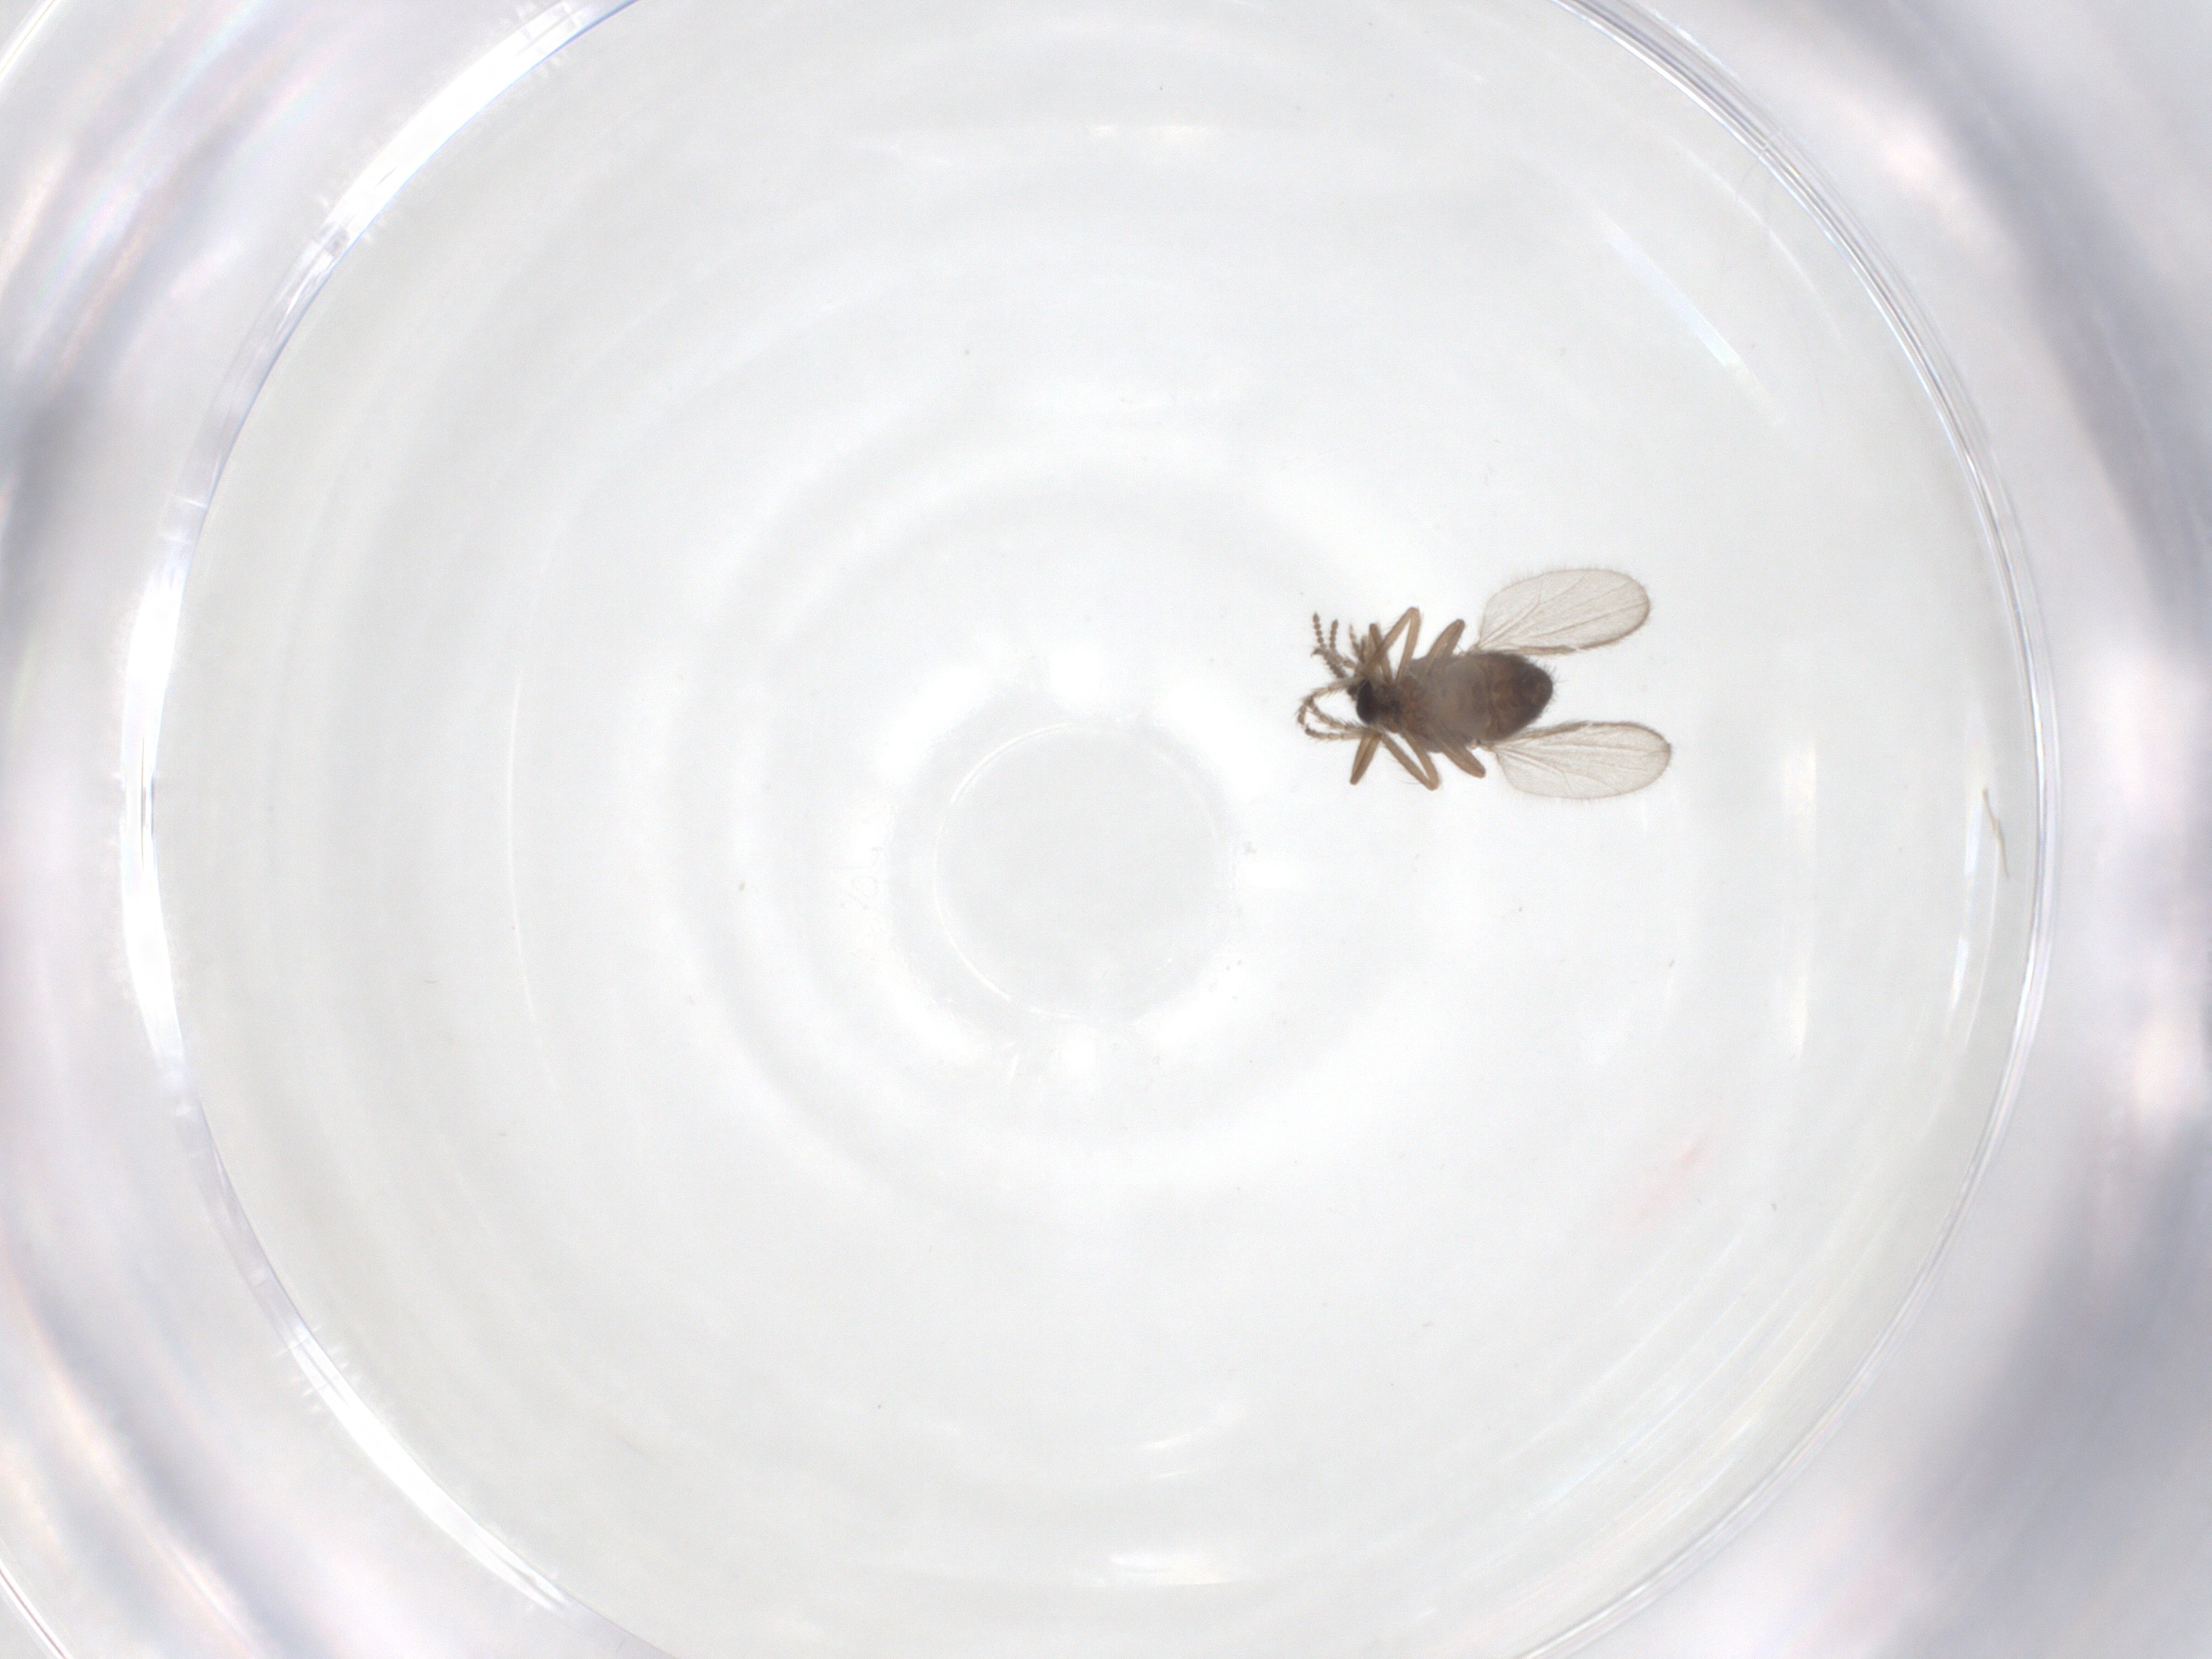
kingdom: Animalia
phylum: Arthropoda
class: Insecta
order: Diptera
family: Ceratopogonidae
